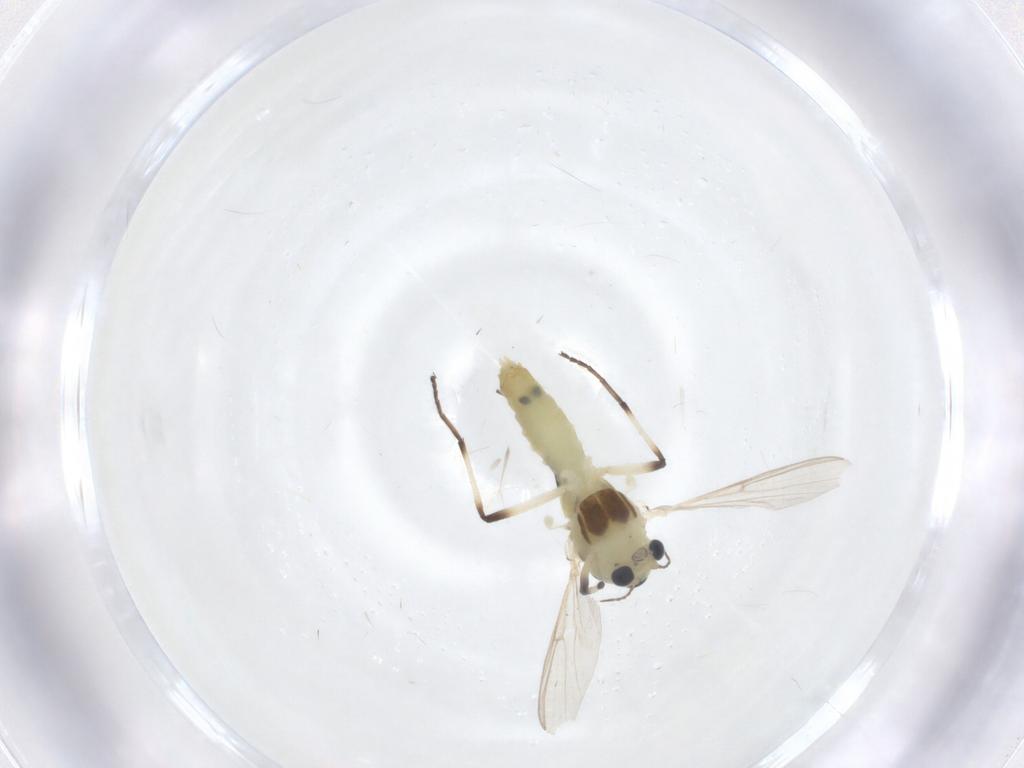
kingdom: Animalia
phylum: Arthropoda
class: Insecta
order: Diptera
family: Chironomidae
